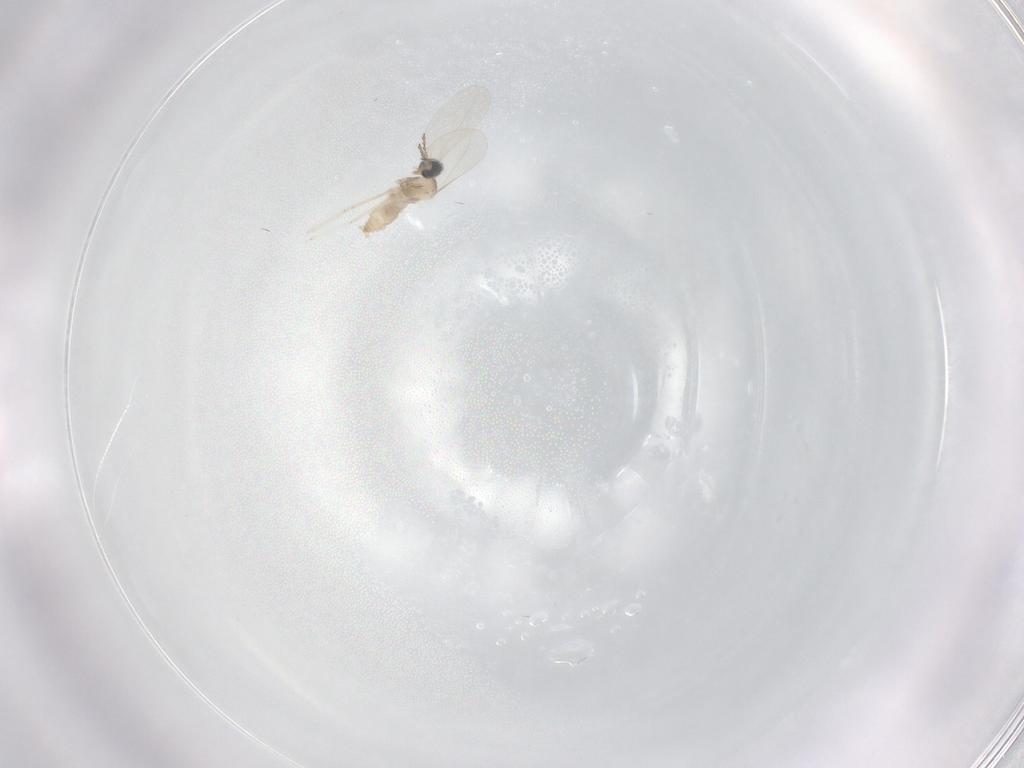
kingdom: Animalia
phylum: Arthropoda
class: Insecta
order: Diptera
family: Cecidomyiidae
